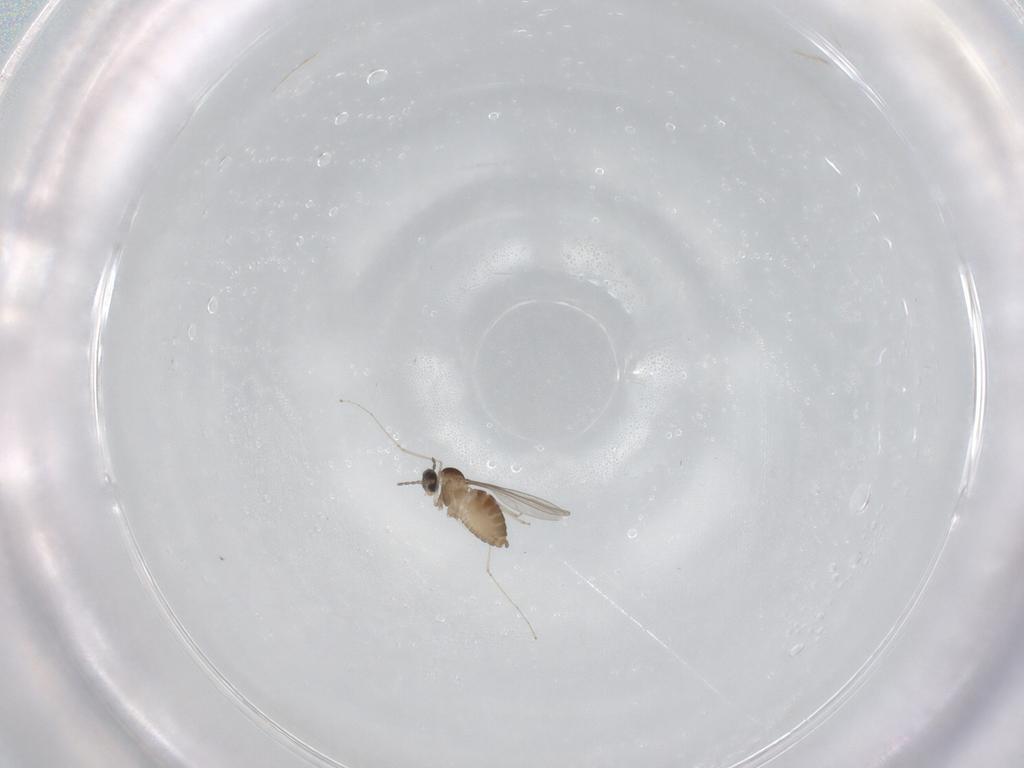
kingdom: Animalia
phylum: Arthropoda
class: Insecta
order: Diptera
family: Cecidomyiidae
